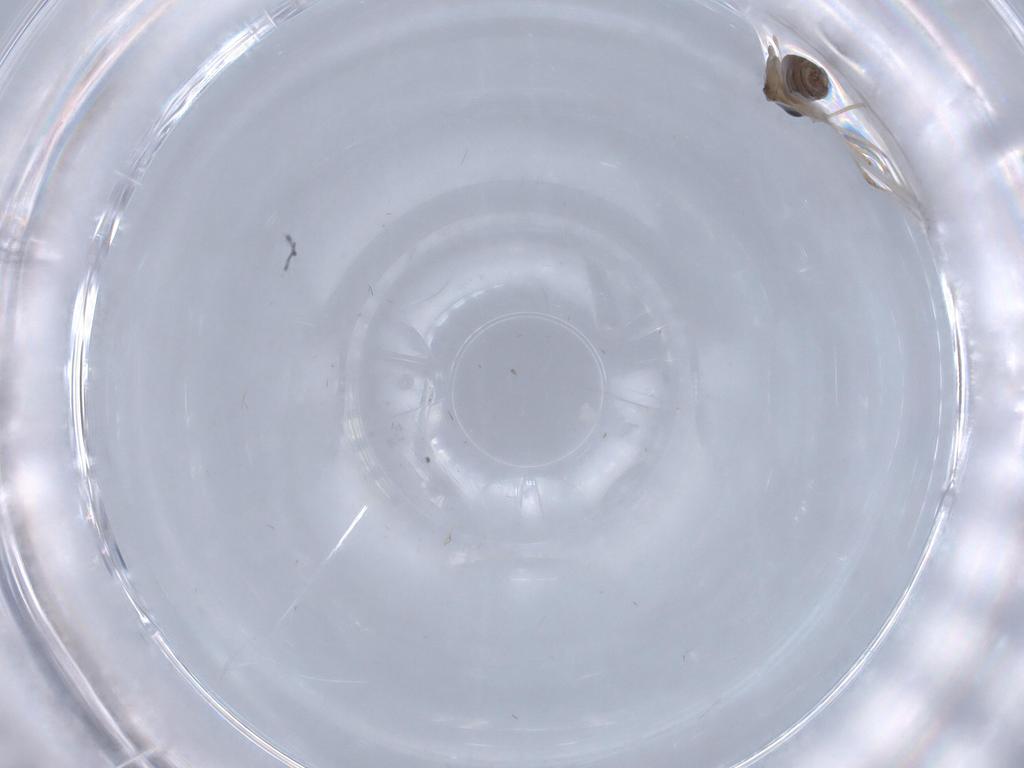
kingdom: Animalia
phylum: Arthropoda
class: Insecta
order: Diptera
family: Cecidomyiidae
